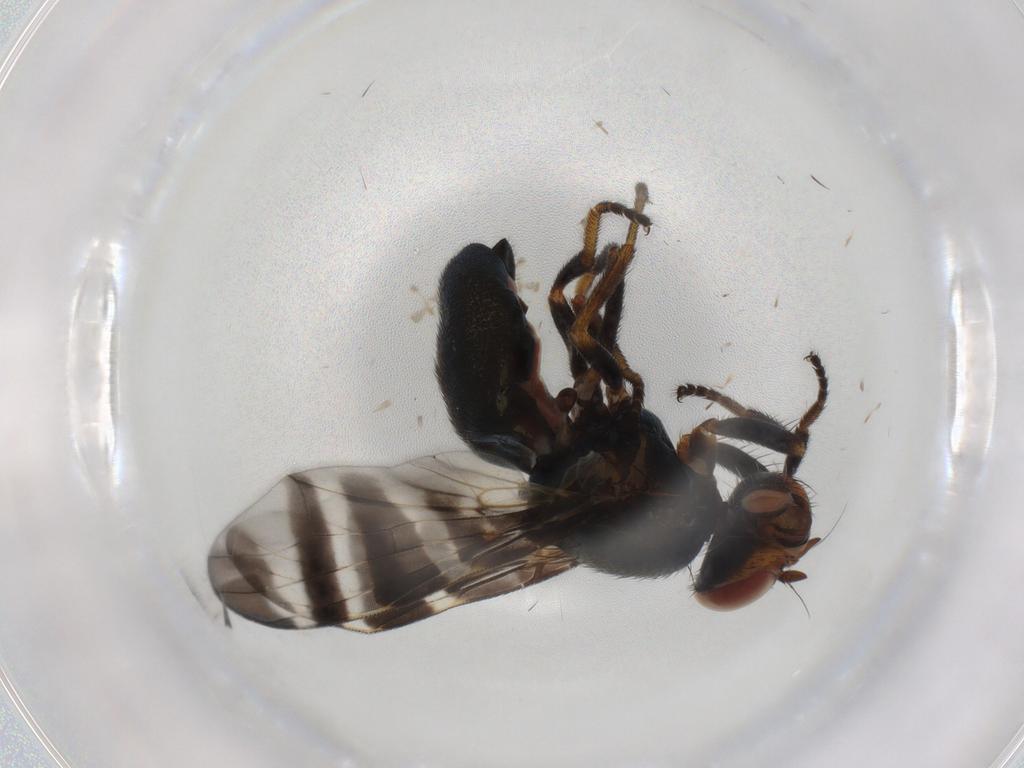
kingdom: Animalia
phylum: Arthropoda
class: Insecta
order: Diptera
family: Platystomatidae
